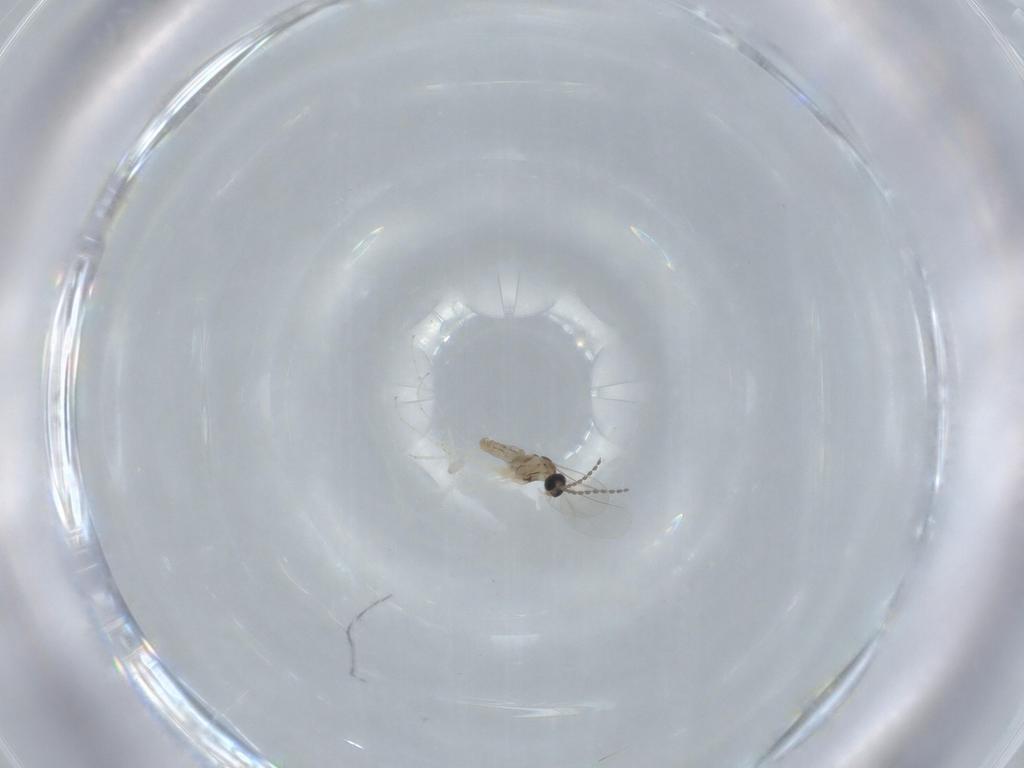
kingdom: Animalia
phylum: Arthropoda
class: Insecta
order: Diptera
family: Cecidomyiidae
